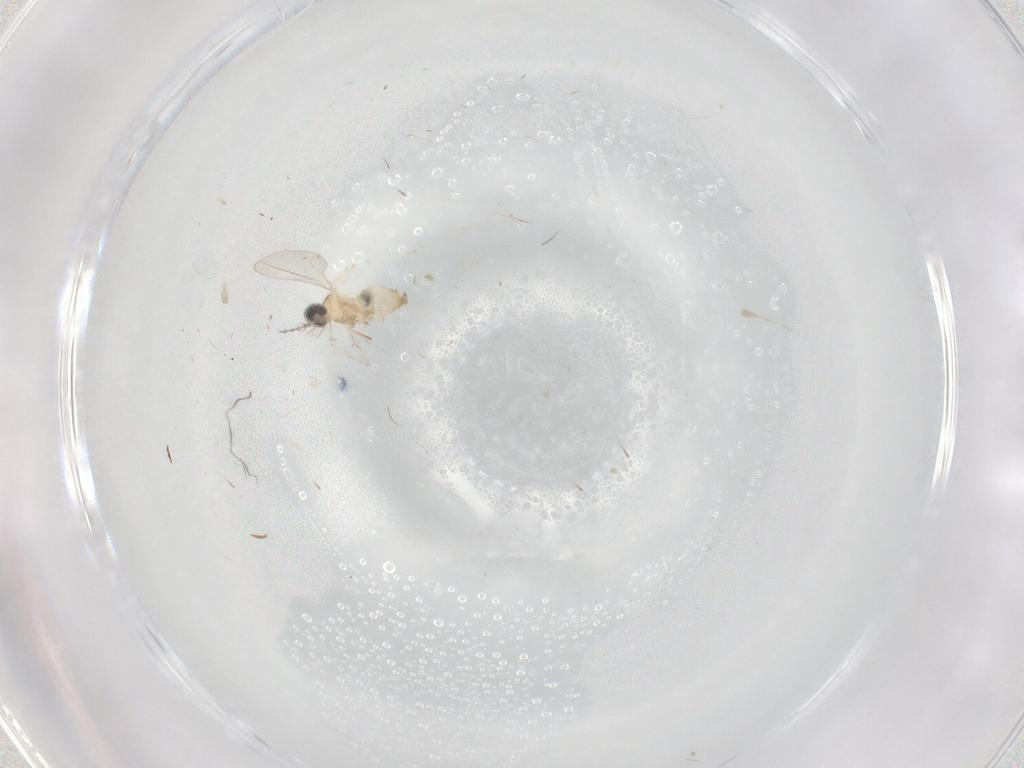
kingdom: Animalia
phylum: Arthropoda
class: Insecta
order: Diptera
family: Cecidomyiidae
